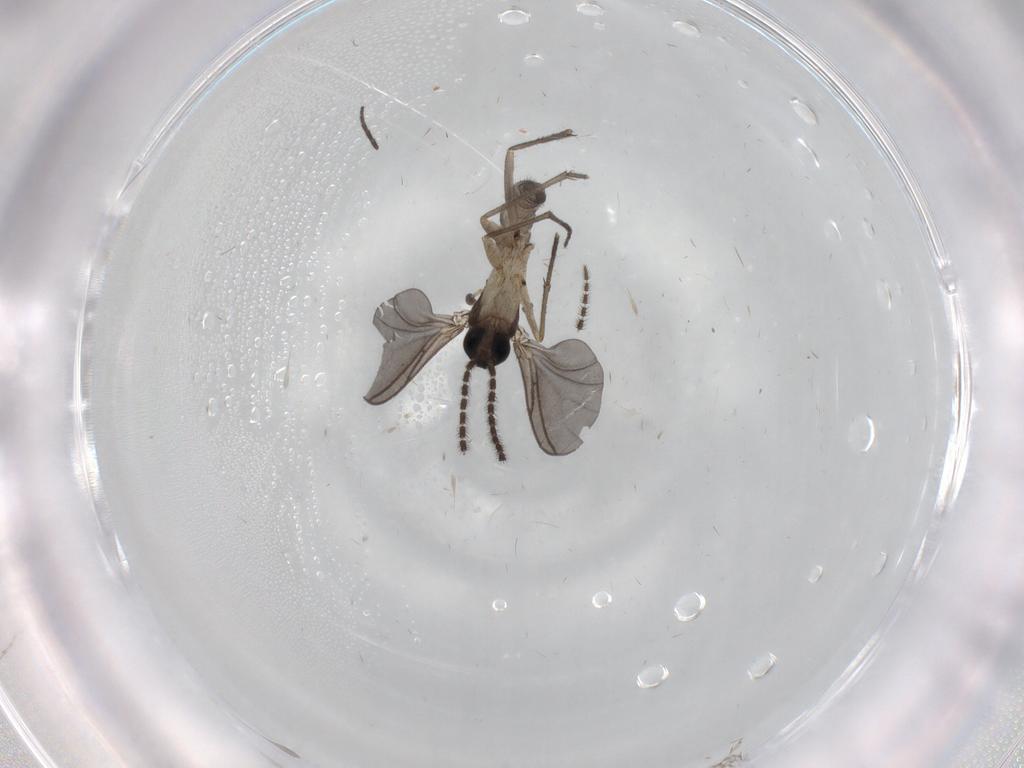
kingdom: Animalia
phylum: Arthropoda
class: Insecta
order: Diptera
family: Sciaridae
